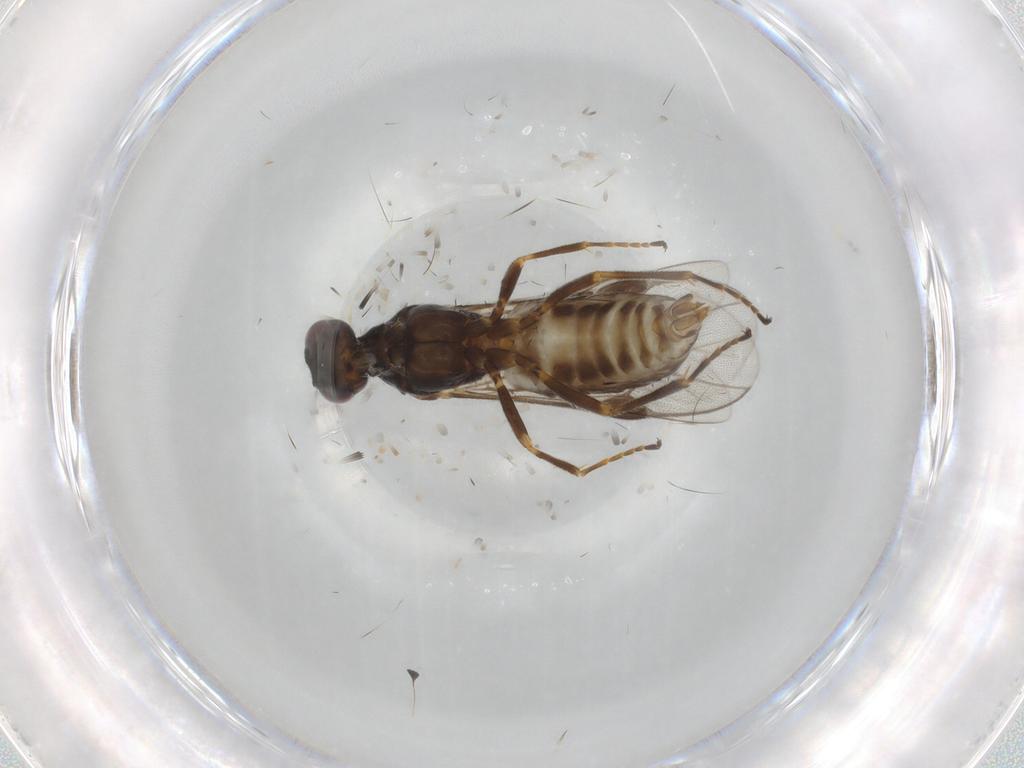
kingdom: Animalia
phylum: Arthropoda
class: Insecta
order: Hymenoptera
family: Braconidae
